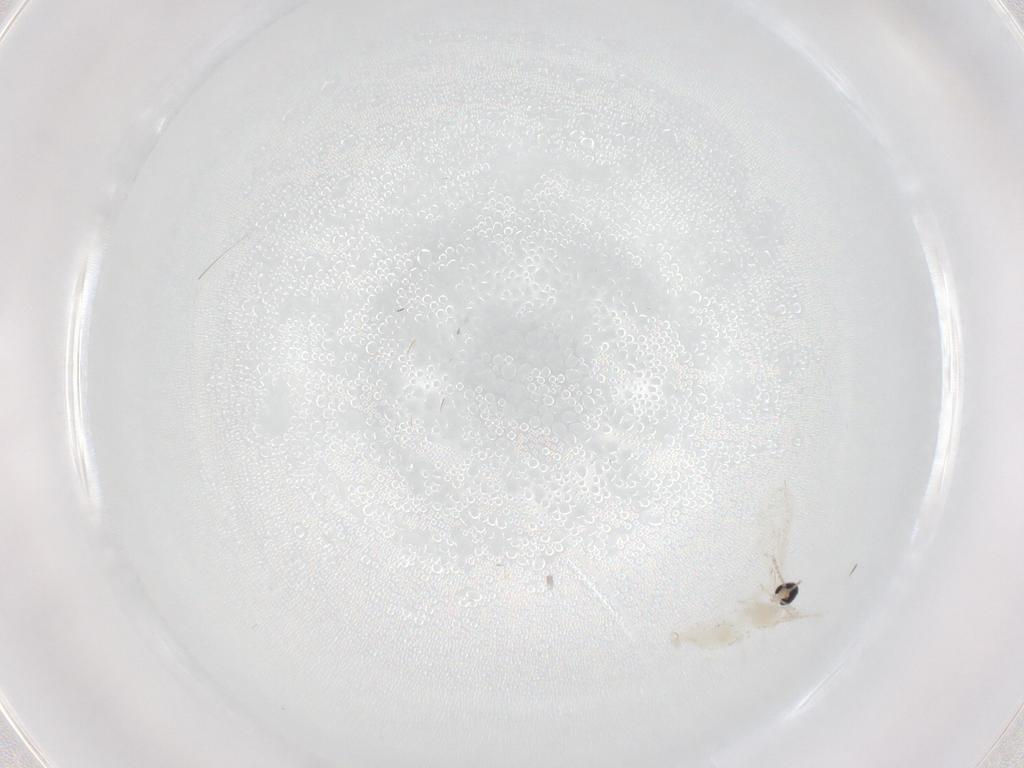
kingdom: Animalia
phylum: Arthropoda
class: Insecta
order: Diptera
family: Sciaridae
